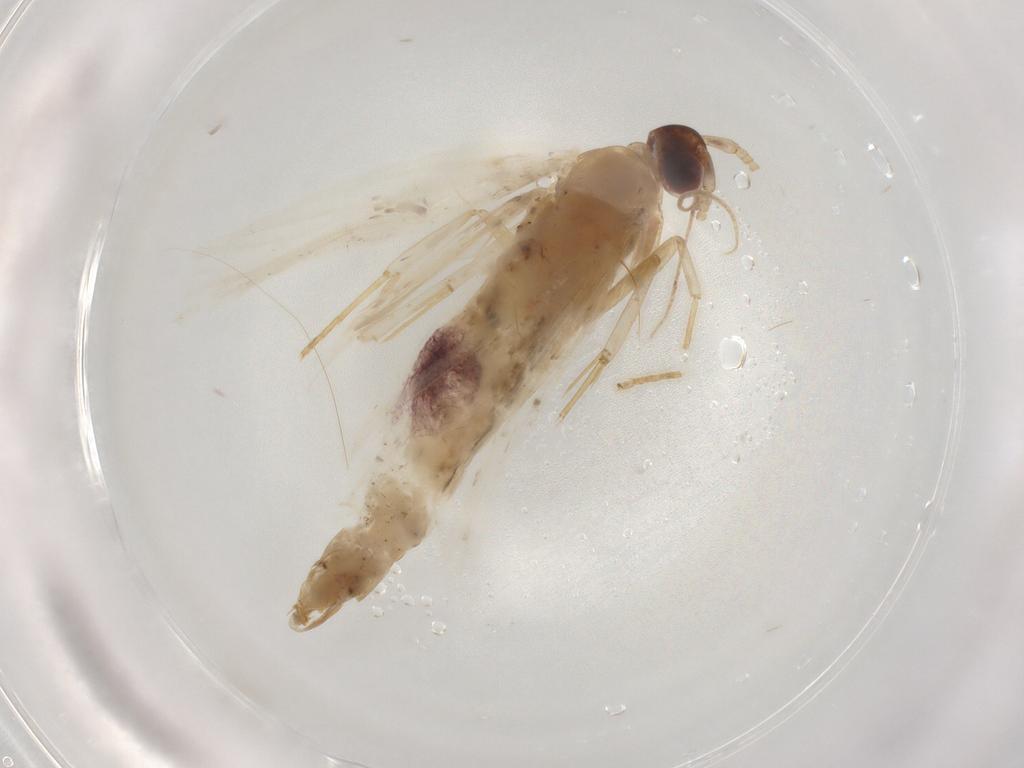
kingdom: Animalia
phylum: Arthropoda
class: Insecta
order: Lepidoptera
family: Lecithoceridae
